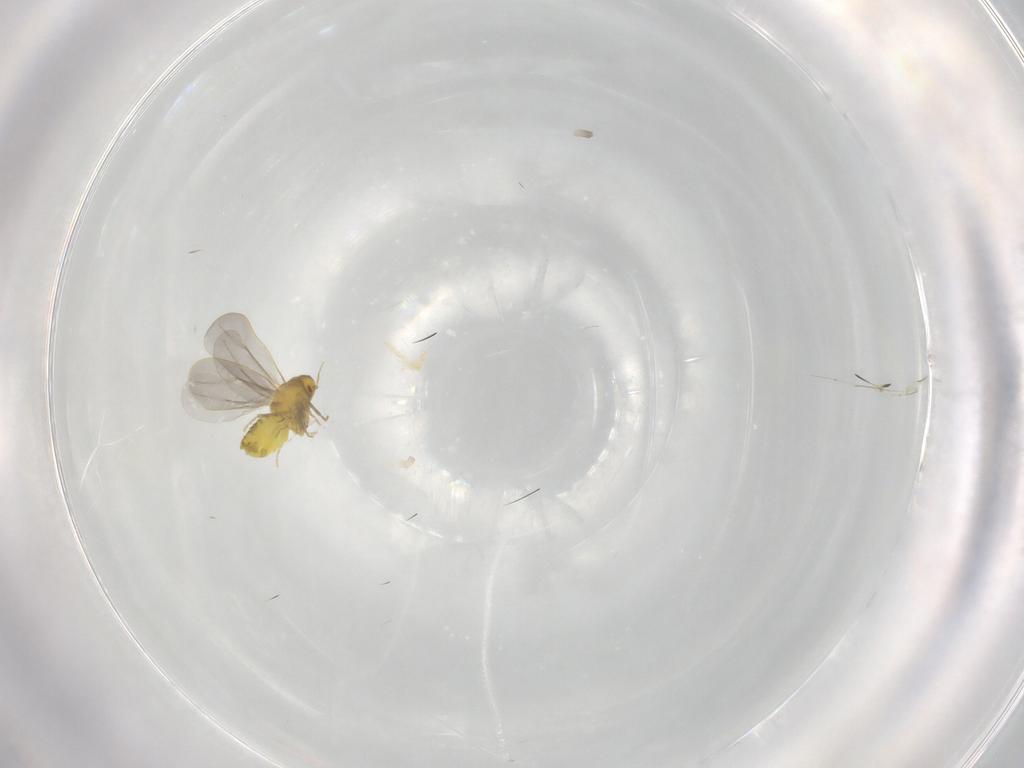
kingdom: Animalia
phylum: Arthropoda
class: Insecta
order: Hemiptera
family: Aleyrodidae
